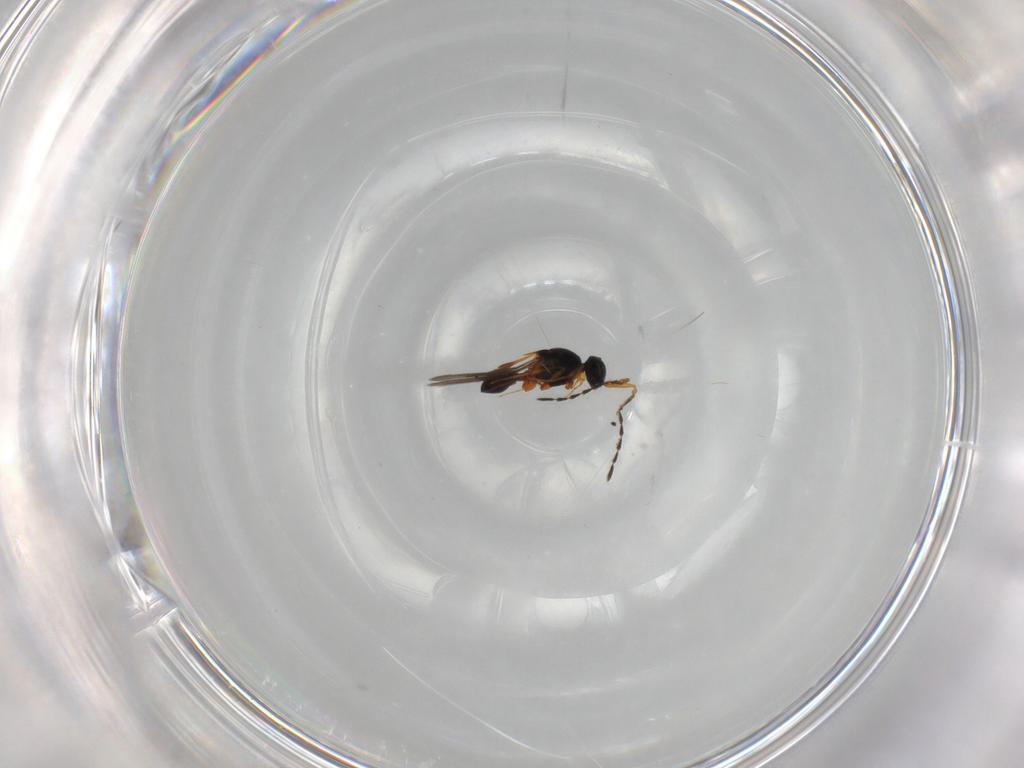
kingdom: Animalia
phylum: Arthropoda
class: Insecta
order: Hymenoptera
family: Platygastridae
